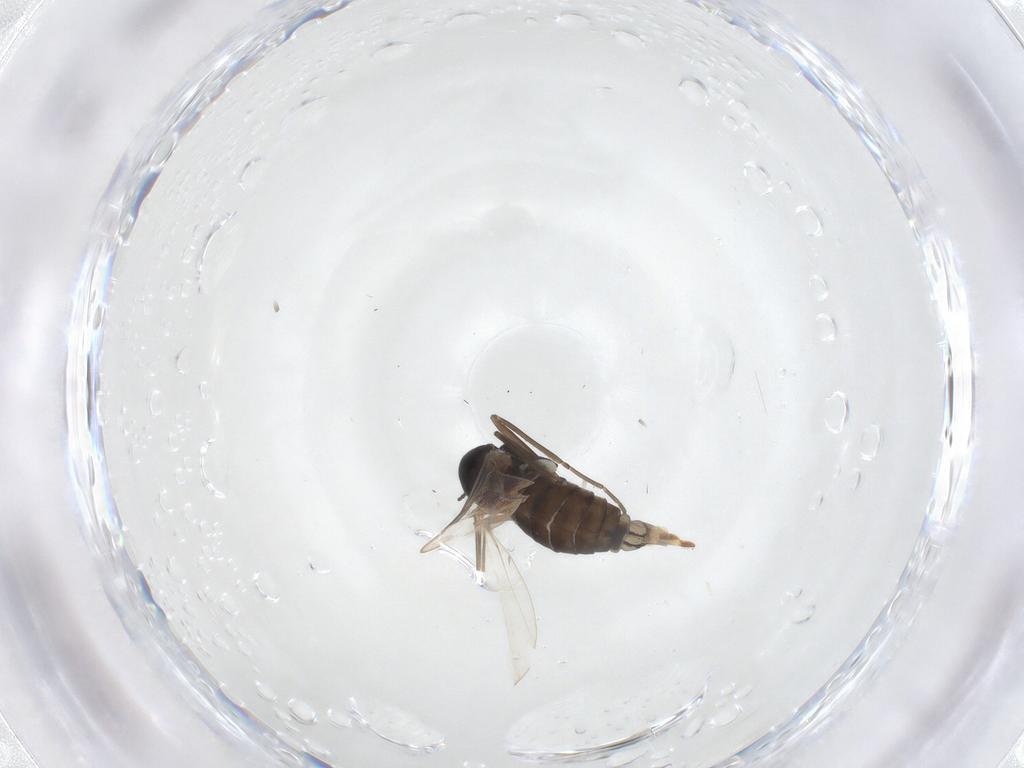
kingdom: Animalia
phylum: Arthropoda
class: Insecta
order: Diptera
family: Cecidomyiidae
